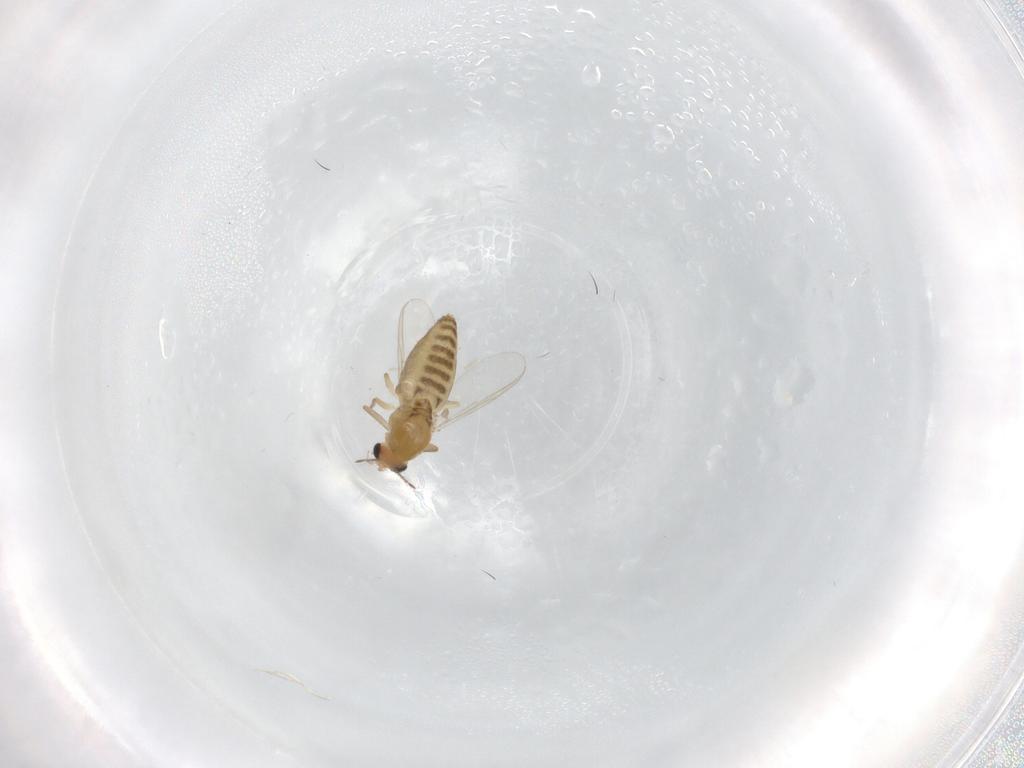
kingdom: Animalia
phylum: Arthropoda
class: Insecta
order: Diptera
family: Chironomidae
